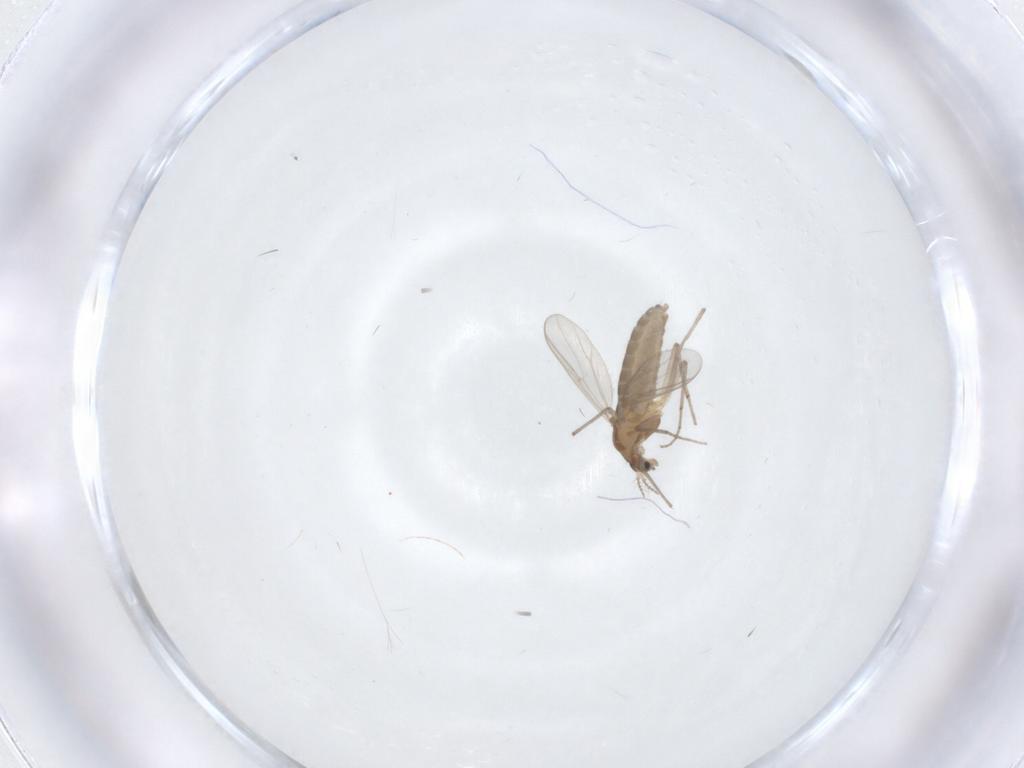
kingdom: Animalia
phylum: Arthropoda
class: Insecta
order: Diptera
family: Chironomidae
